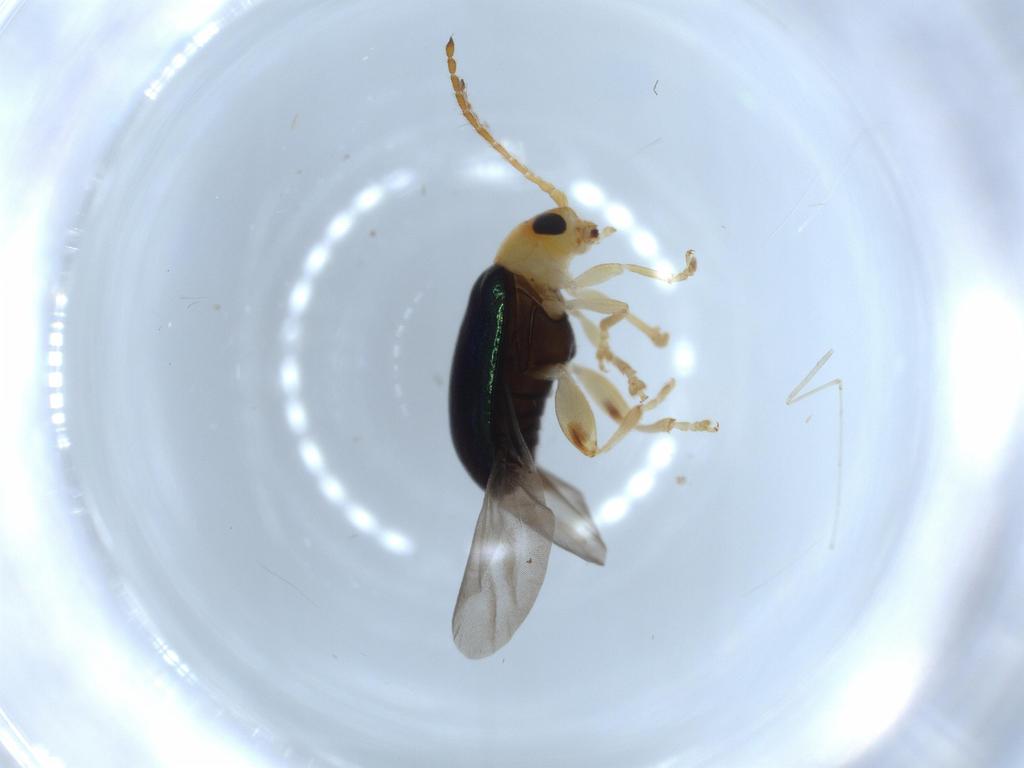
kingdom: Animalia
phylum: Arthropoda
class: Insecta
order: Coleoptera
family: Chrysomelidae
